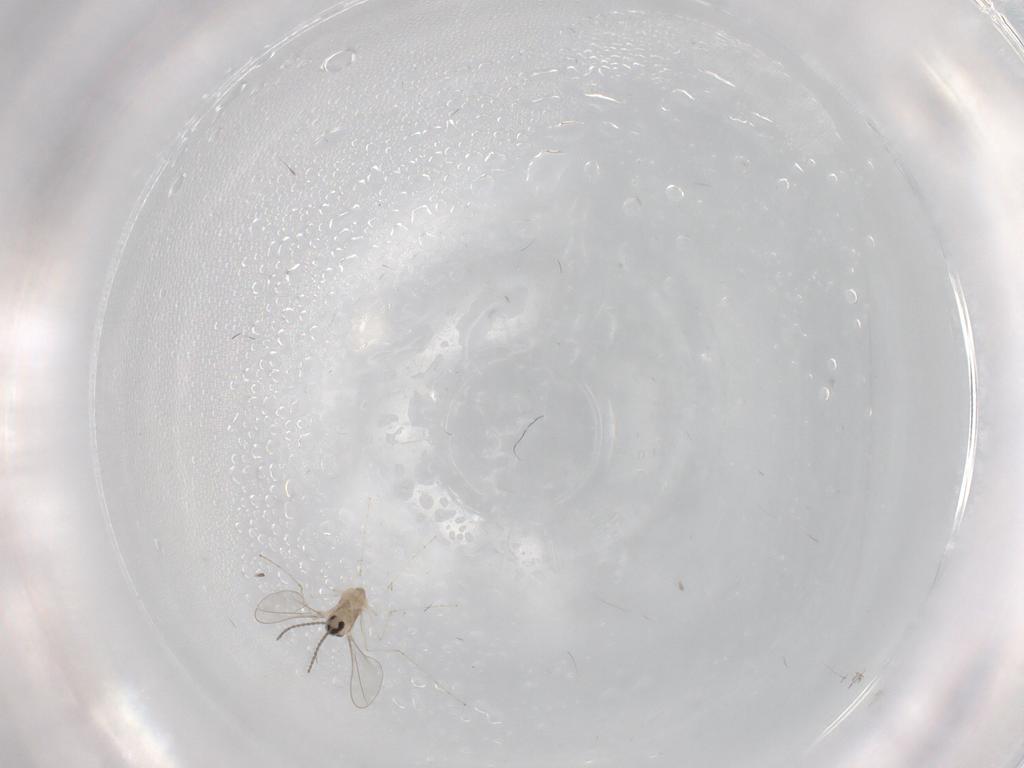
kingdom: Animalia
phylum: Arthropoda
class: Insecta
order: Diptera
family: Cecidomyiidae
